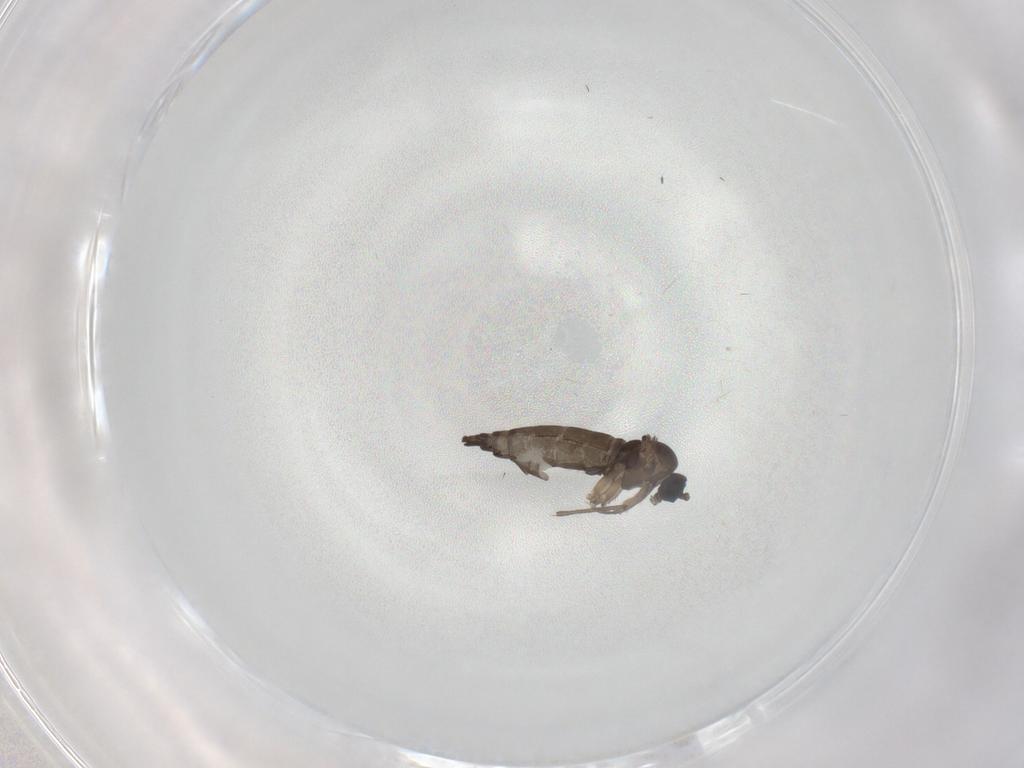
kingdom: Animalia
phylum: Arthropoda
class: Insecta
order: Diptera
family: Sciaridae
